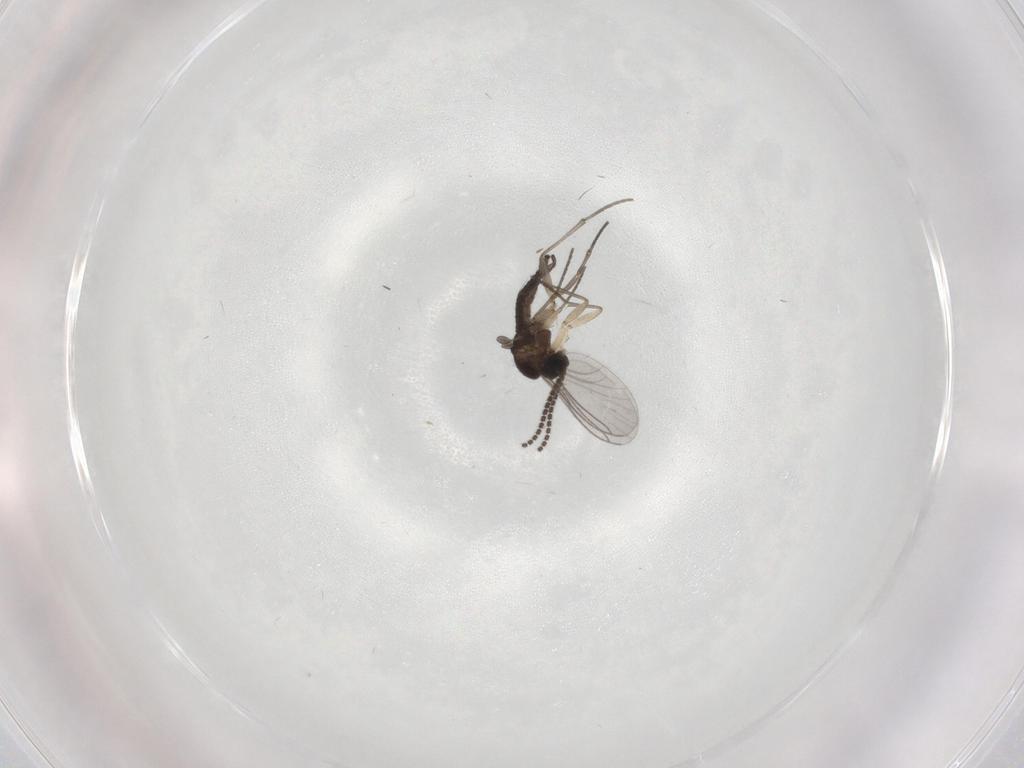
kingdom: Animalia
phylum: Arthropoda
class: Insecta
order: Diptera
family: Sciaridae
